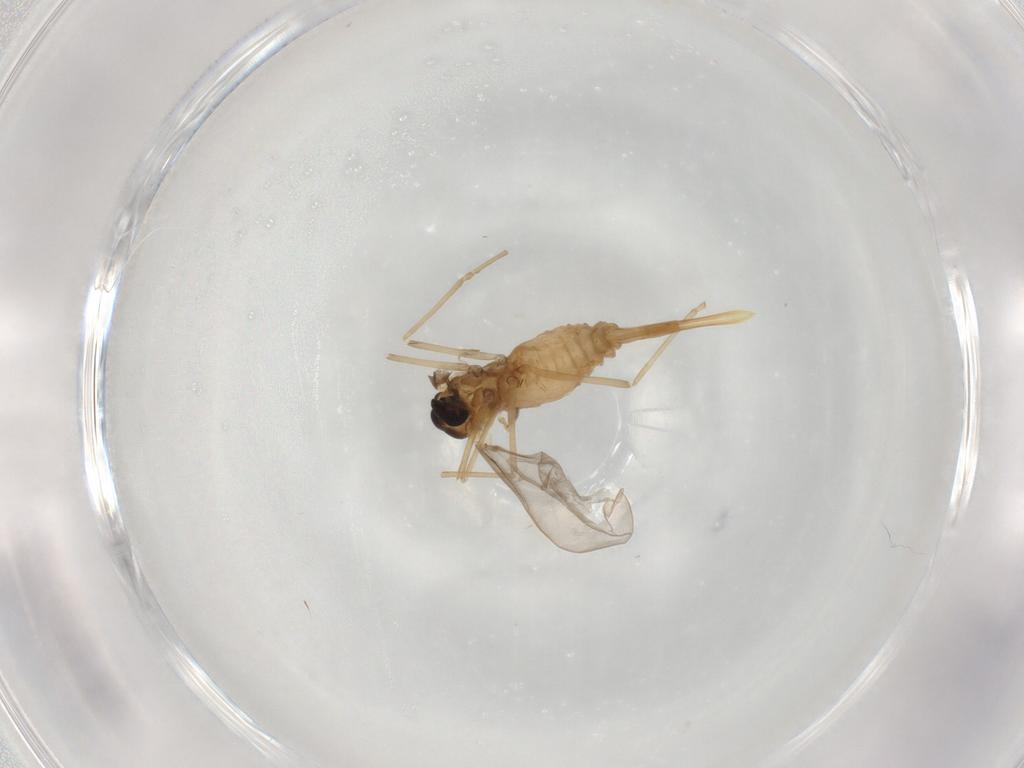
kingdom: Animalia
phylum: Arthropoda
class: Insecta
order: Diptera
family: Cecidomyiidae
